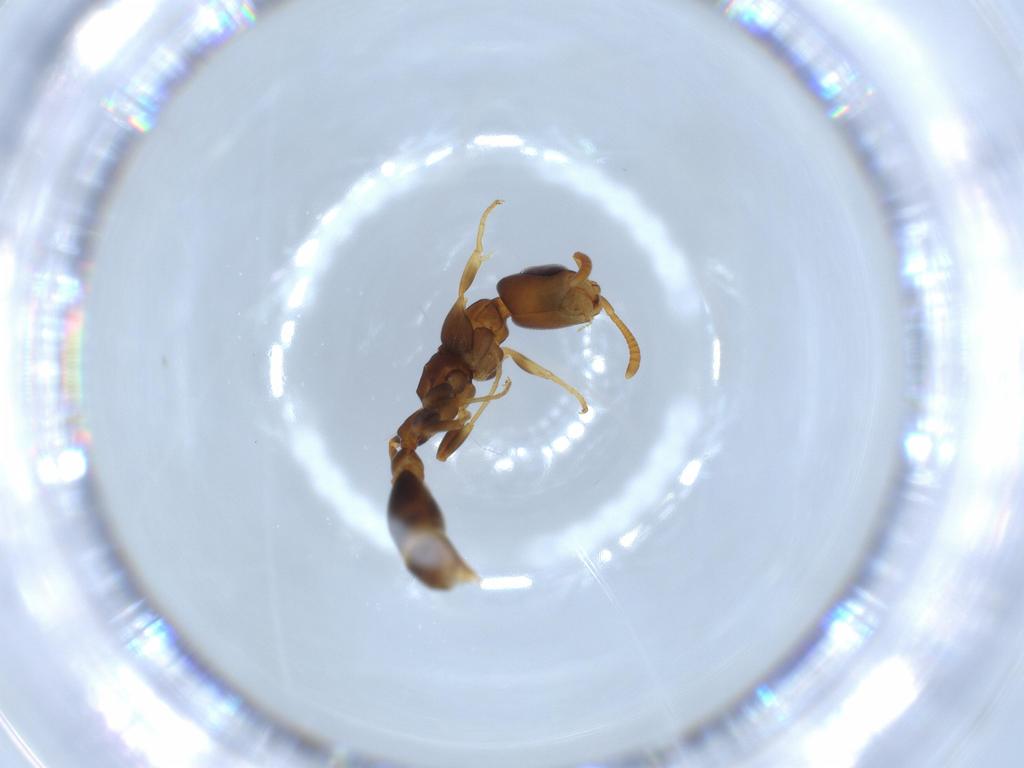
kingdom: Animalia
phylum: Arthropoda
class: Insecta
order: Hymenoptera
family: Formicidae
